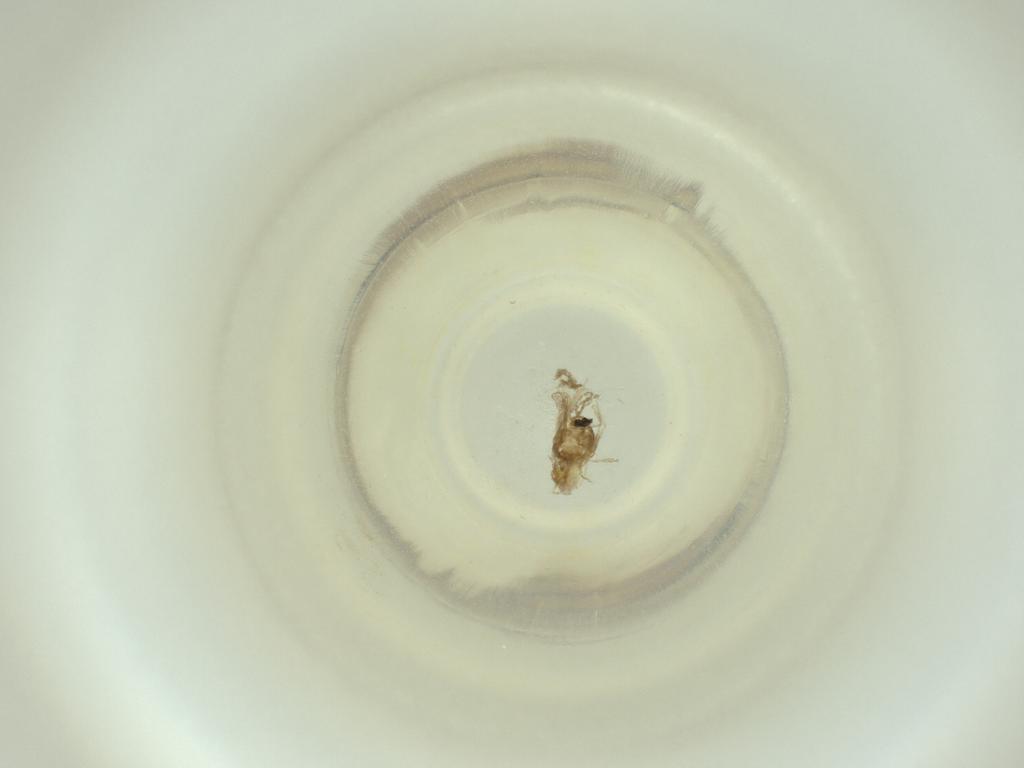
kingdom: Animalia
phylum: Arthropoda
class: Insecta
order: Diptera
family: Cecidomyiidae
